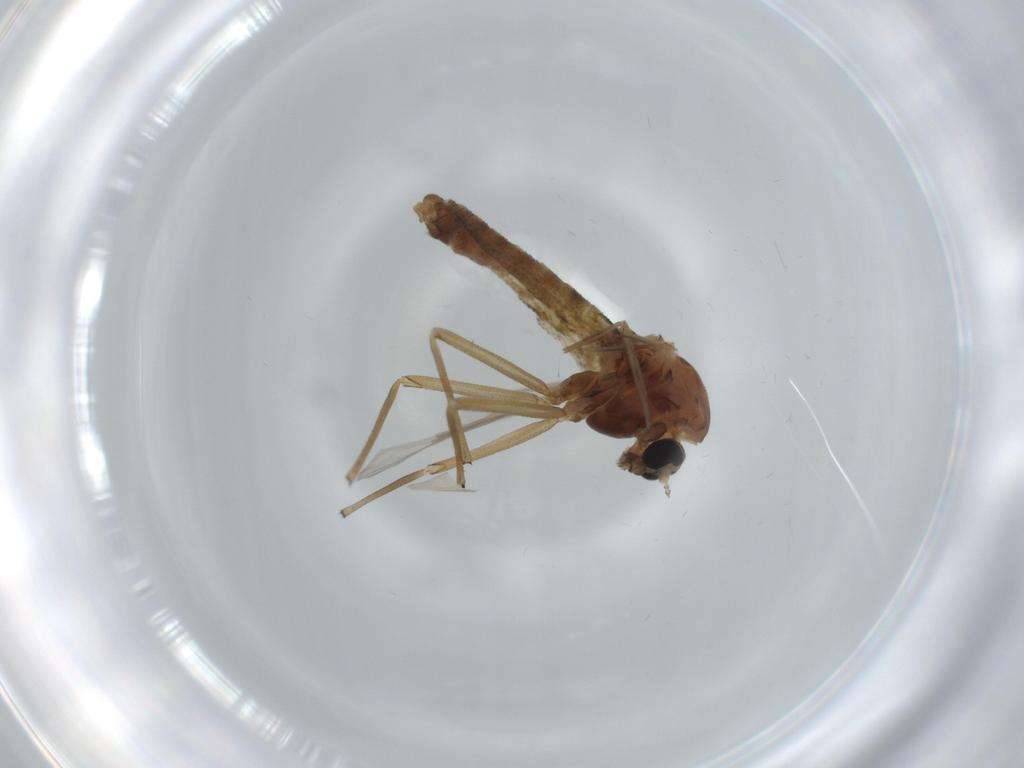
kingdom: Animalia
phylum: Arthropoda
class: Insecta
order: Diptera
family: Chironomidae
